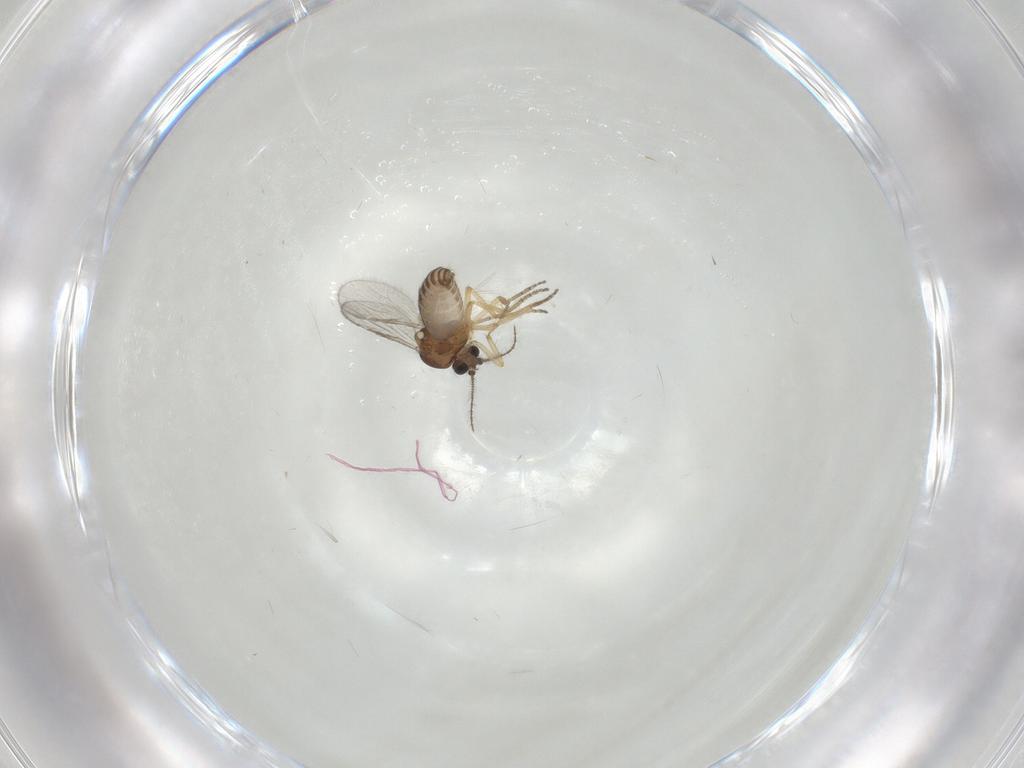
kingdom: Animalia
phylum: Arthropoda
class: Insecta
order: Diptera
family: Ceratopogonidae
